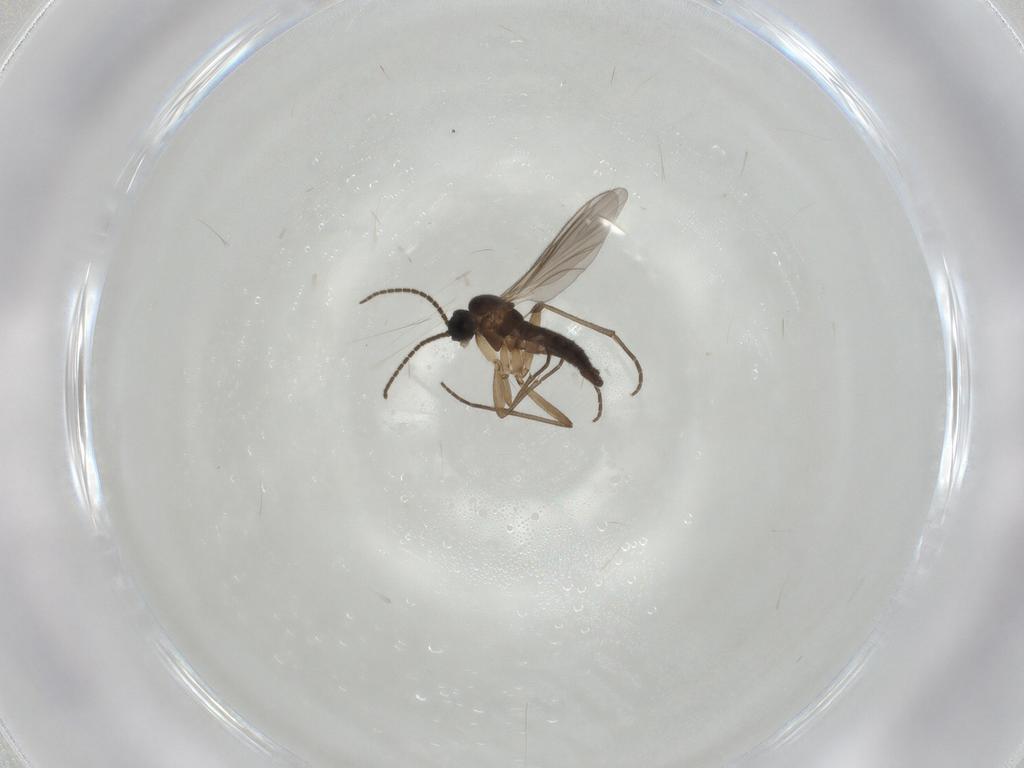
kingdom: Animalia
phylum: Arthropoda
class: Insecta
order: Diptera
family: Sciaridae
